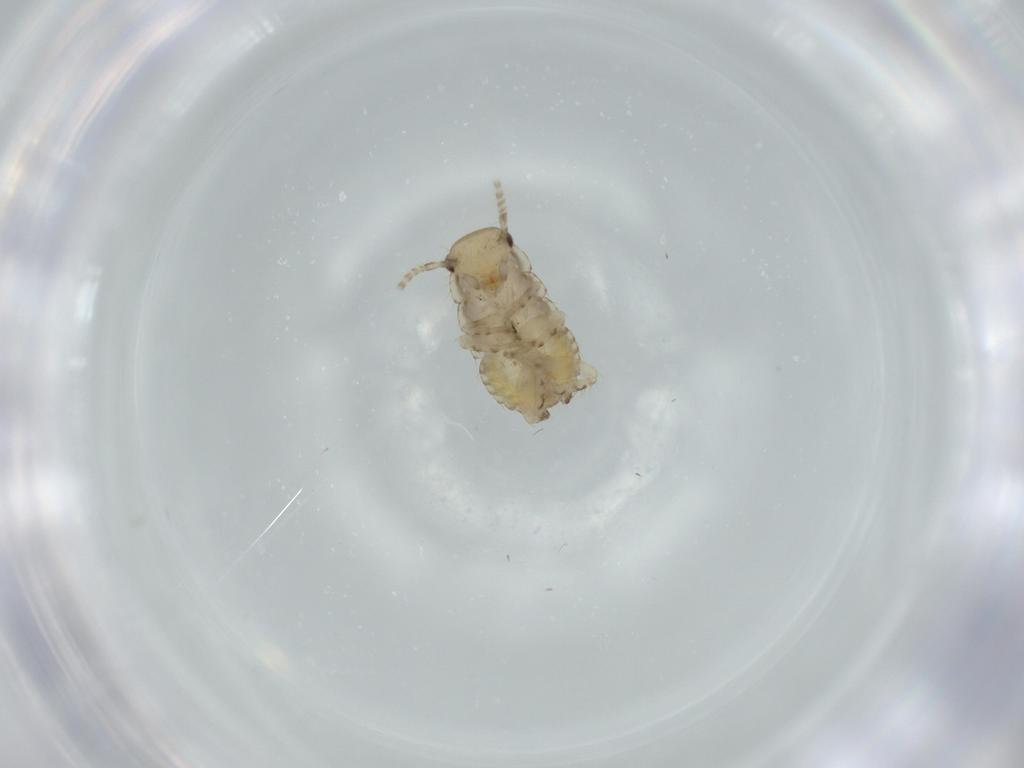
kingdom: Animalia
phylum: Arthropoda
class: Insecta
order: Blattodea
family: Ectobiidae
